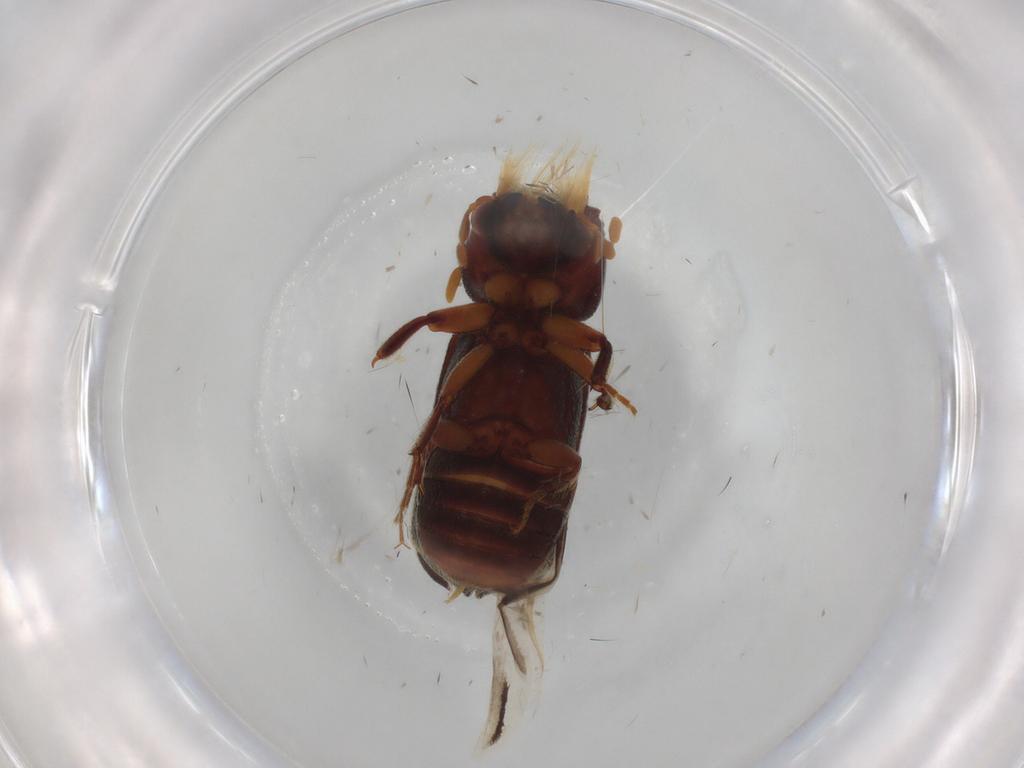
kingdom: Animalia
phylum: Arthropoda
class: Insecta
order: Coleoptera
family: Bostrichidae
